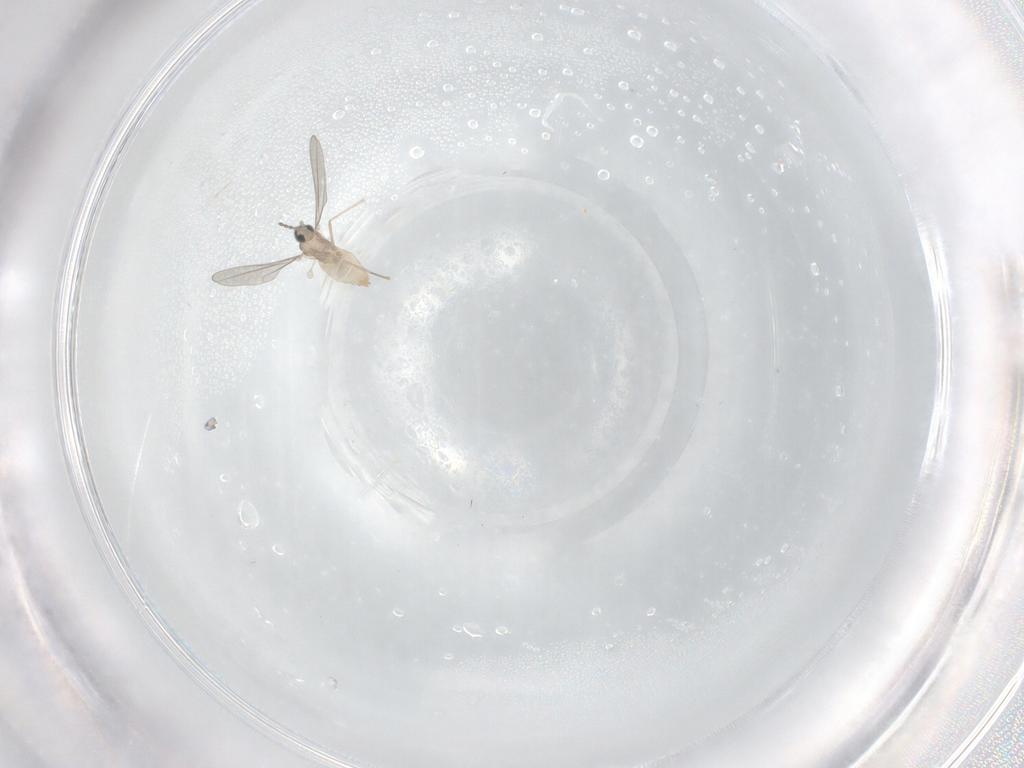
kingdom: Animalia
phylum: Arthropoda
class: Insecta
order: Diptera
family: Cecidomyiidae
